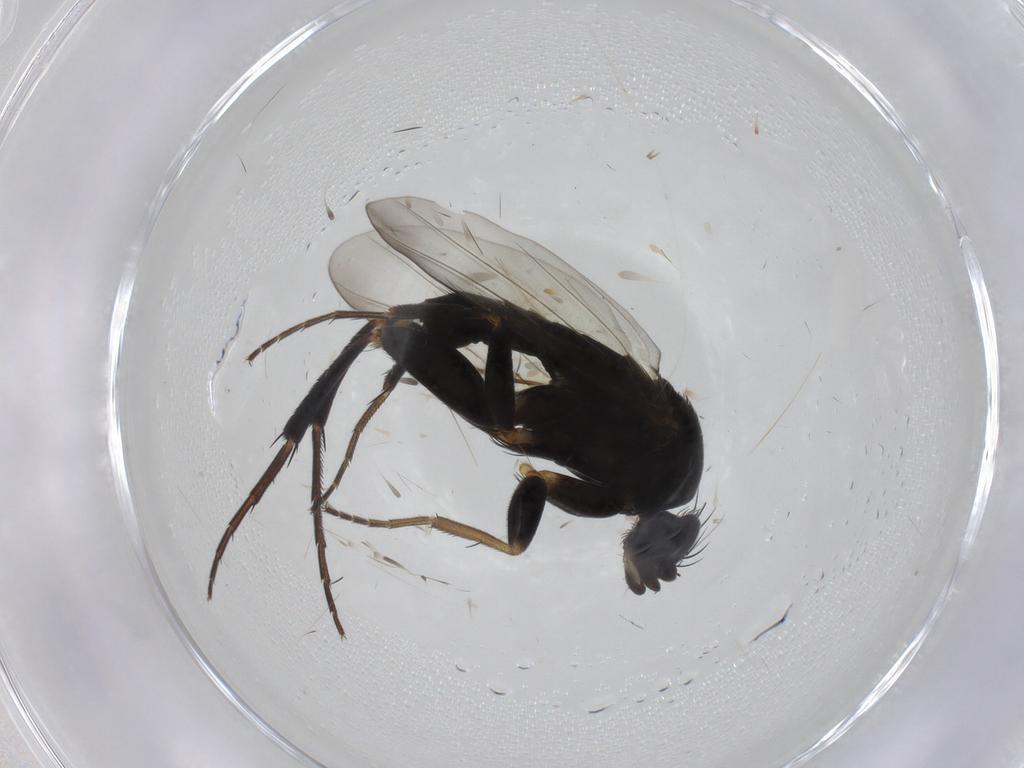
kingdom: Animalia
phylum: Arthropoda
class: Insecta
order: Diptera
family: Phoridae
